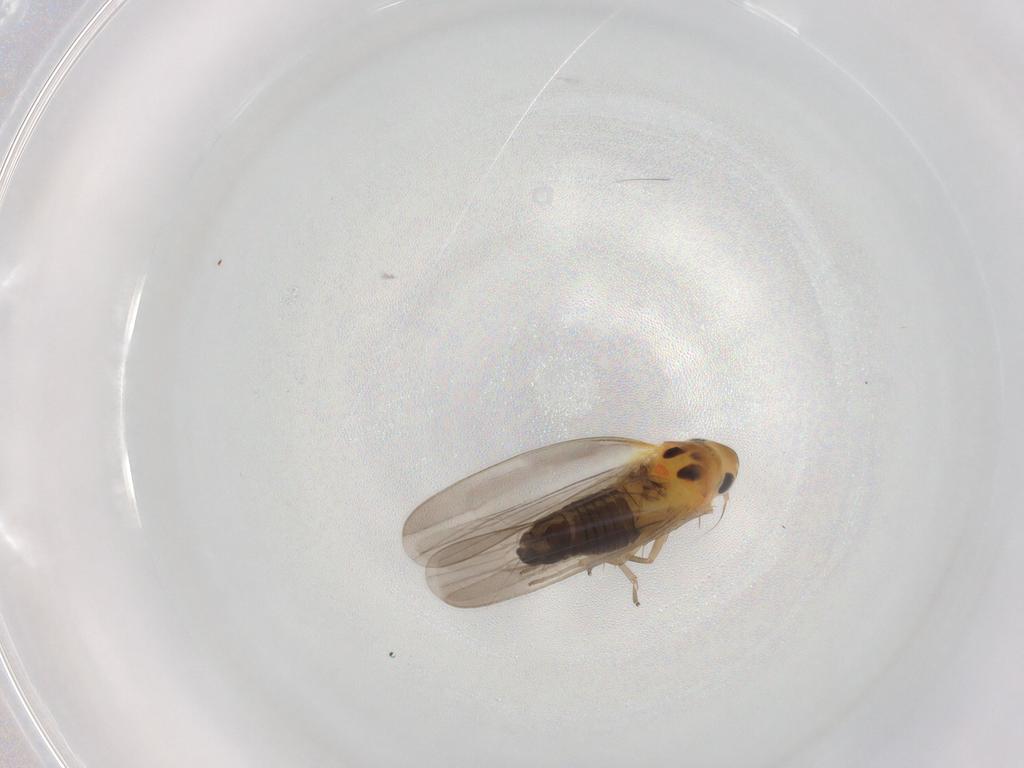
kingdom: Animalia
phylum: Arthropoda
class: Insecta
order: Hemiptera
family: Cicadellidae
